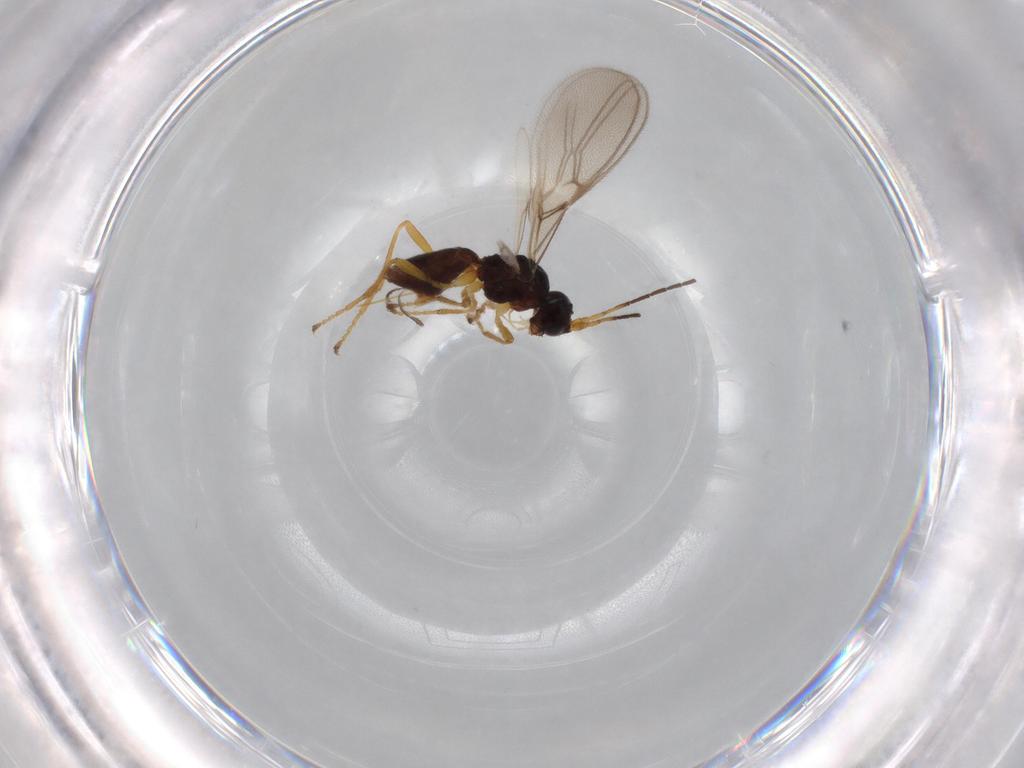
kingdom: Animalia
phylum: Arthropoda
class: Insecta
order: Hymenoptera
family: Braconidae
